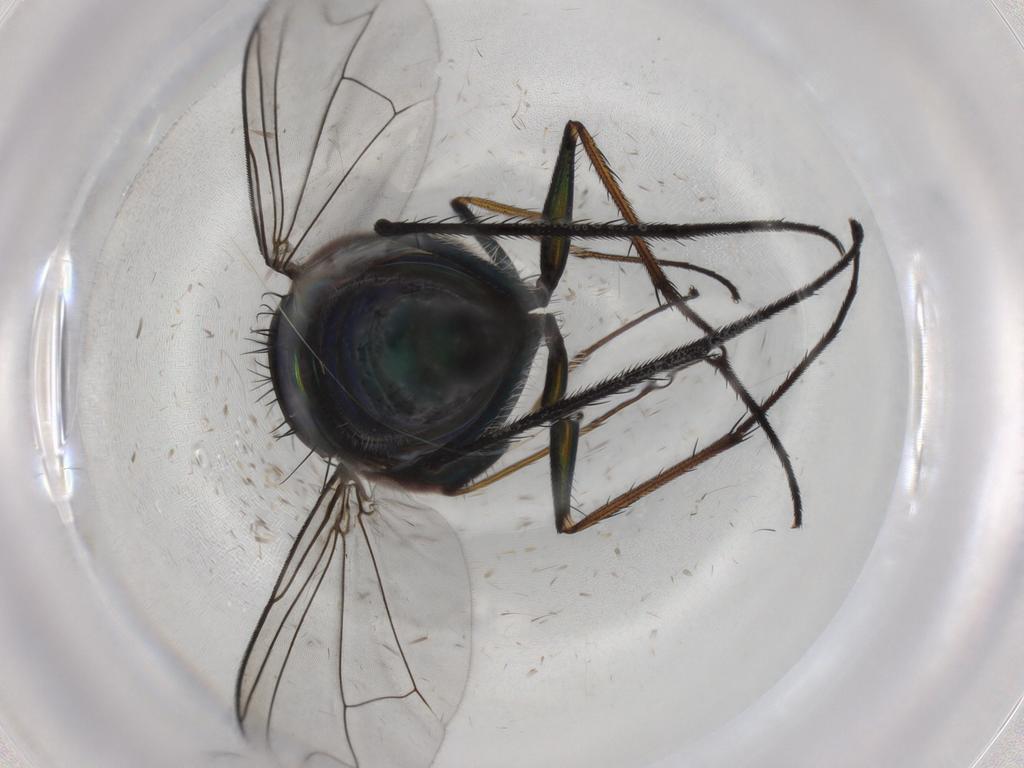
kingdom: Animalia
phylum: Arthropoda
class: Insecta
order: Diptera
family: Dolichopodidae
